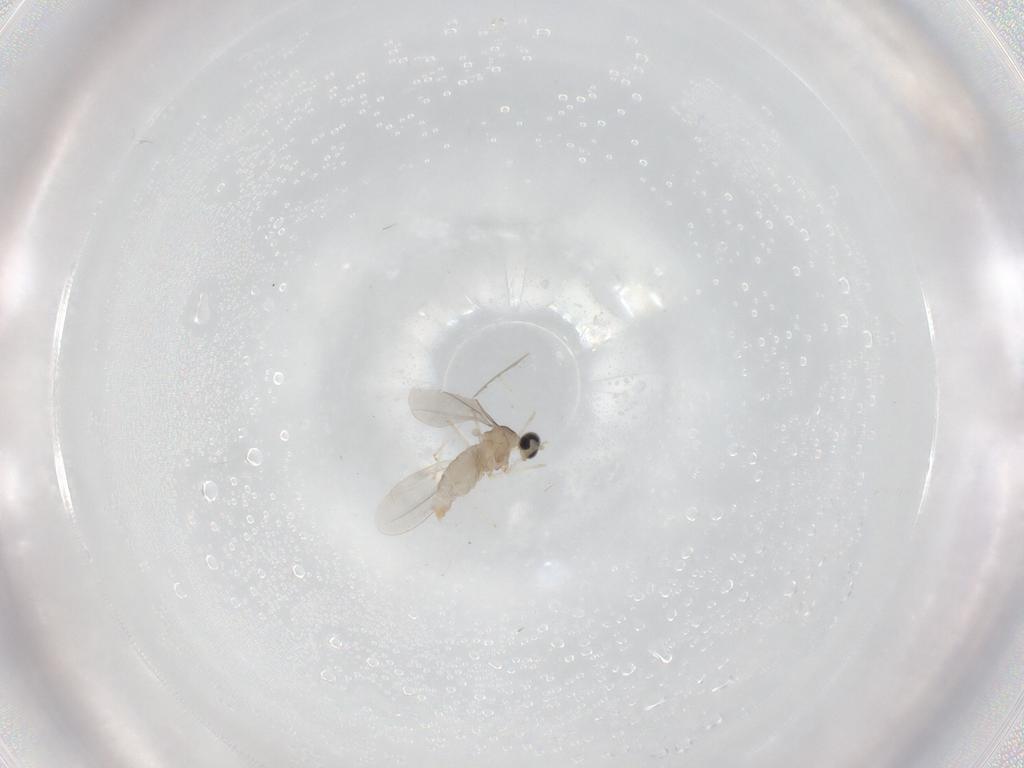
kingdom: Animalia
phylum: Arthropoda
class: Insecta
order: Diptera
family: Cecidomyiidae
